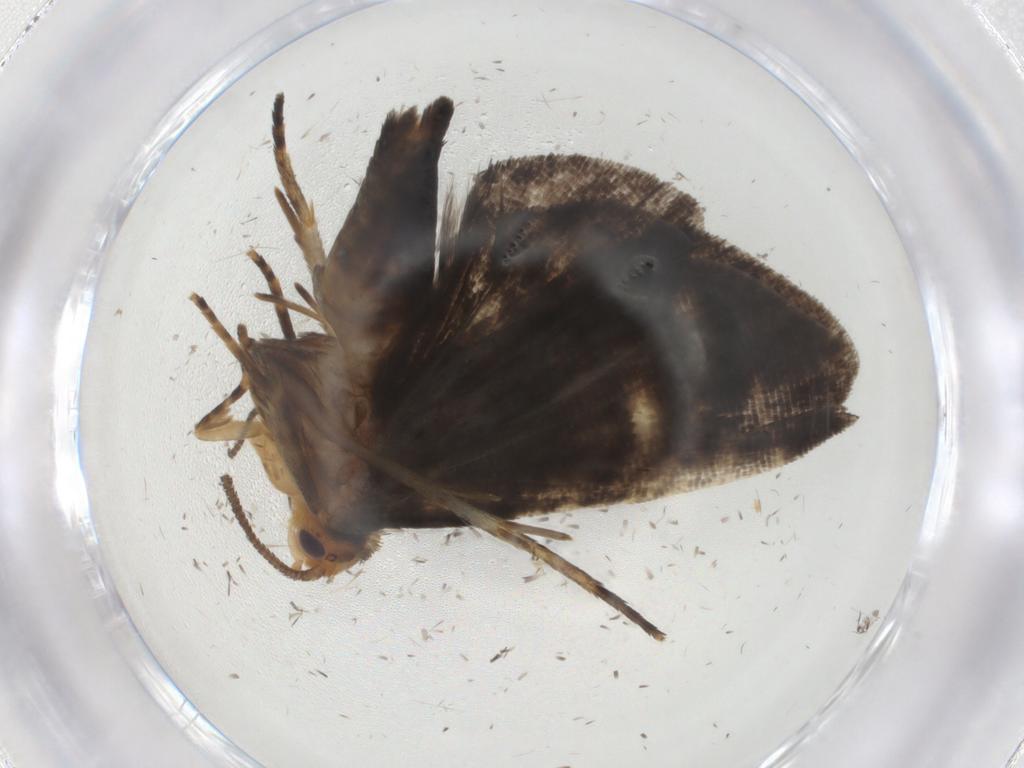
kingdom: Animalia
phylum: Arthropoda
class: Insecta
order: Lepidoptera
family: Tortricidae
